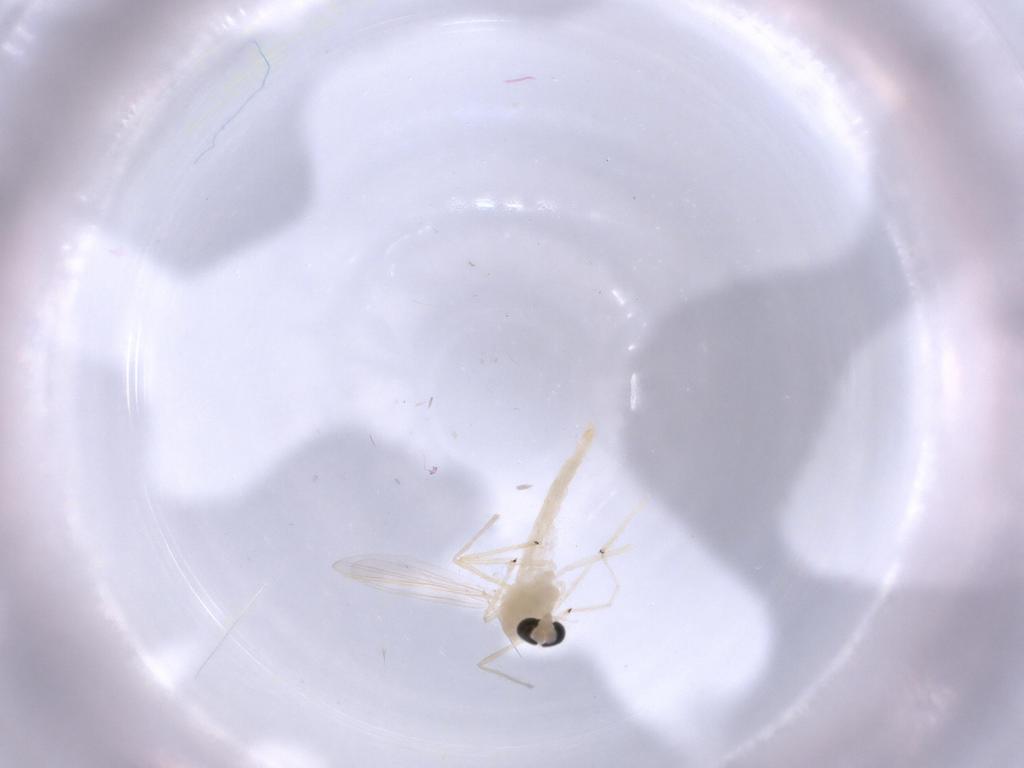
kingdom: Animalia
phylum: Arthropoda
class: Insecta
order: Diptera
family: Chironomidae
